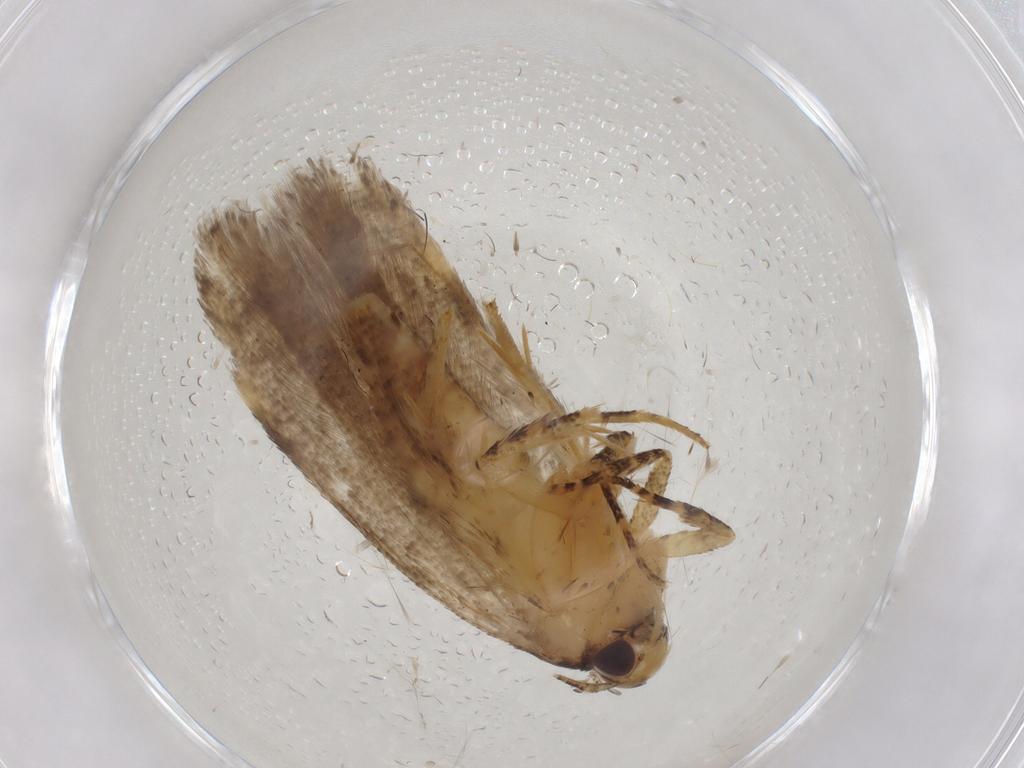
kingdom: Animalia
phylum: Arthropoda
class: Insecta
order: Lepidoptera
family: Gelechiidae
